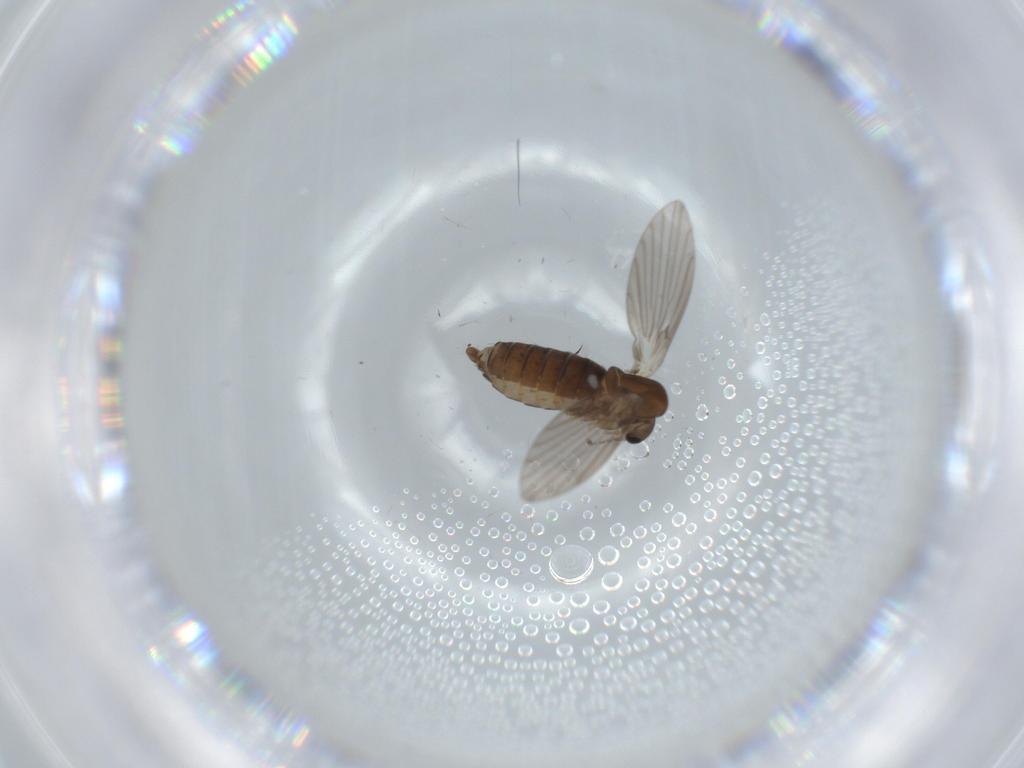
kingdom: Animalia
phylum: Arthropoda
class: Insecta
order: Diptera
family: Psychodidae
